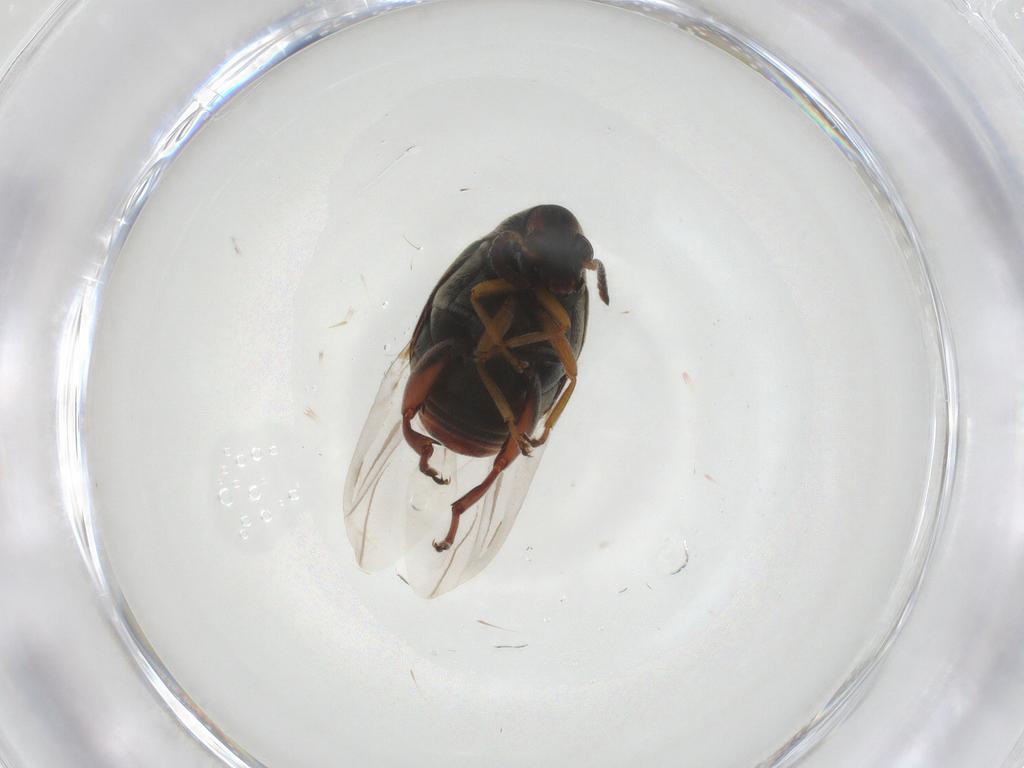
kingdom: Animalia
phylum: Arthropoda
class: Insecta
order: Coleoptera
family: Chrysomelidae
